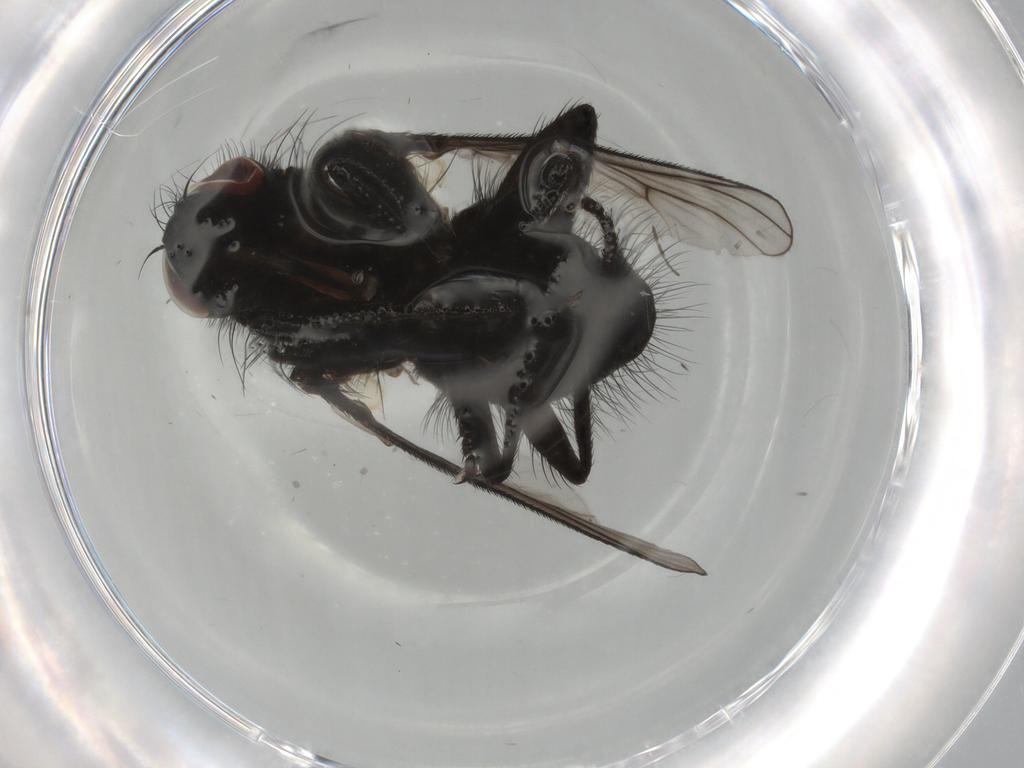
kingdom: Animalia
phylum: Arthropoda
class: Insecta
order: Diptera
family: Muscidae
